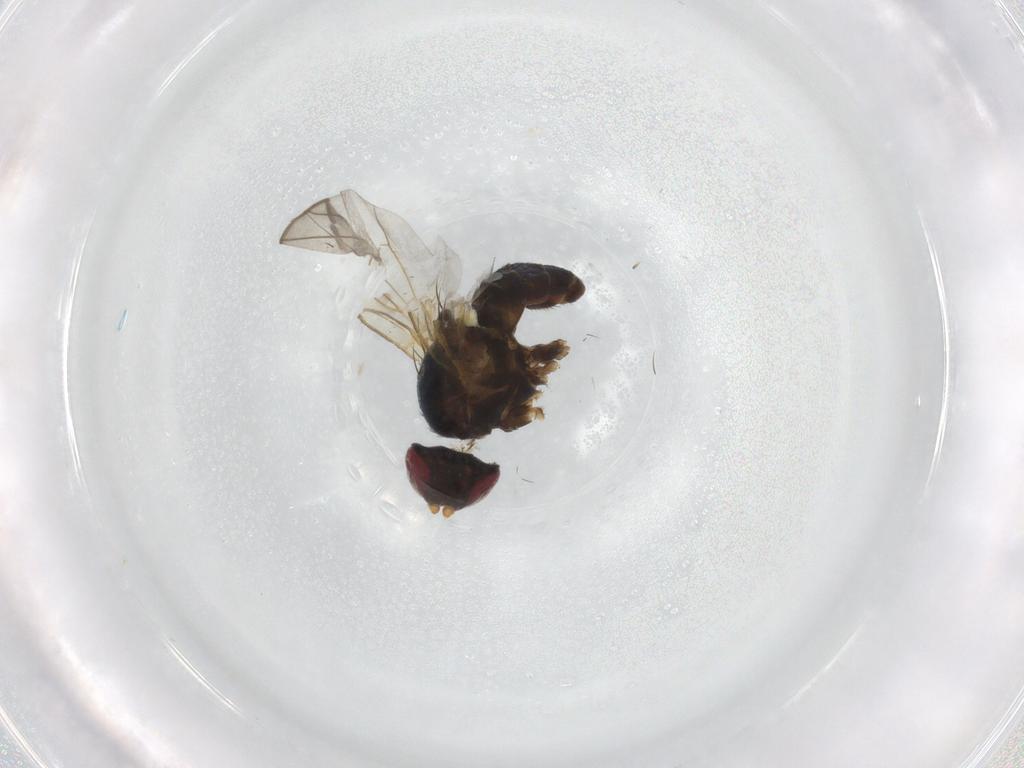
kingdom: Animalia
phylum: Arthropoda
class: Insecta
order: Diptera
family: Agromyzidae
